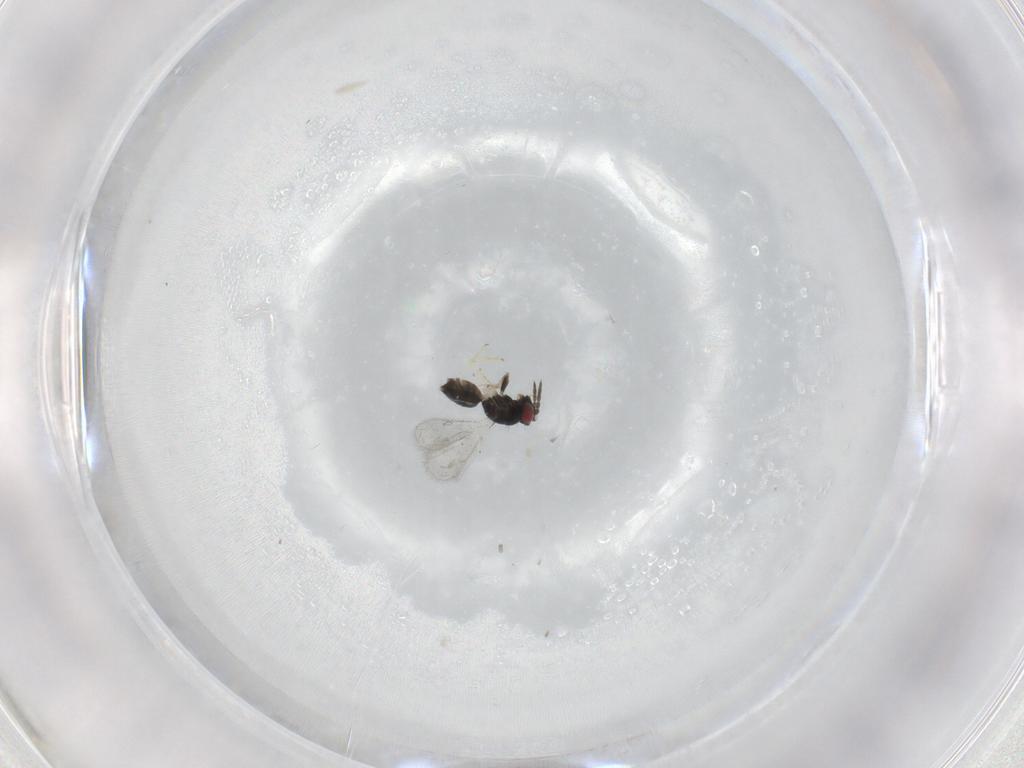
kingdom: Animalia
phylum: Arthropoda
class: Insecta
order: Hymenoptera
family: Eulophidae
